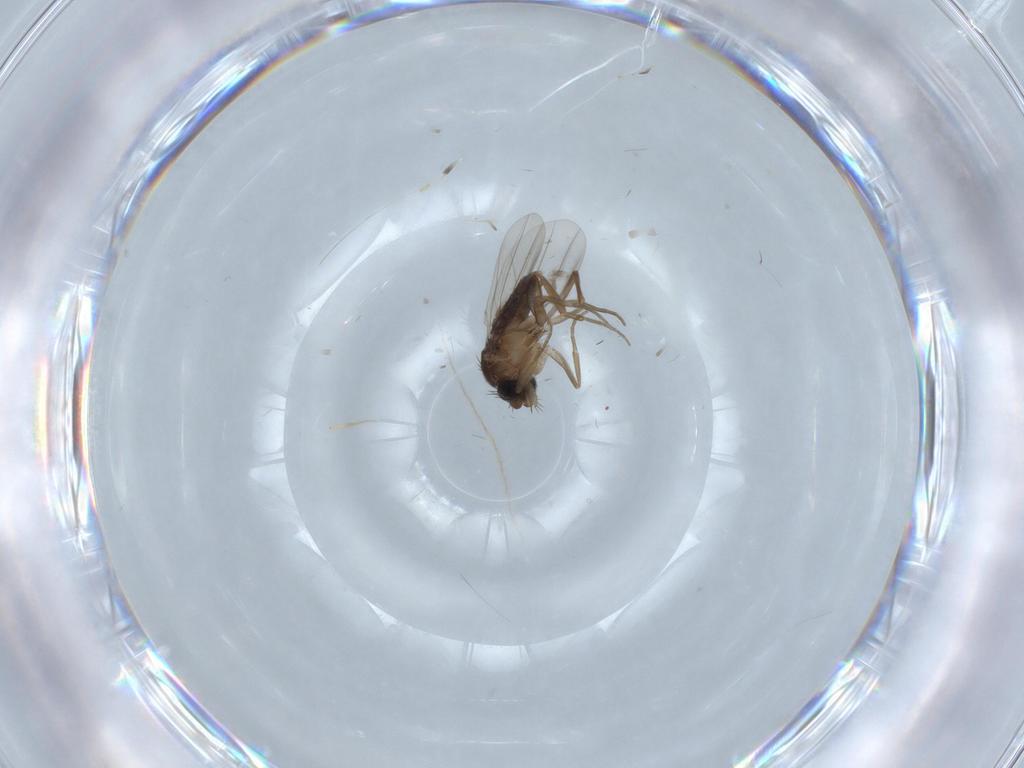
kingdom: Animalia
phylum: Arthropoda
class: Insecta
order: Diptera
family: Phoridae
